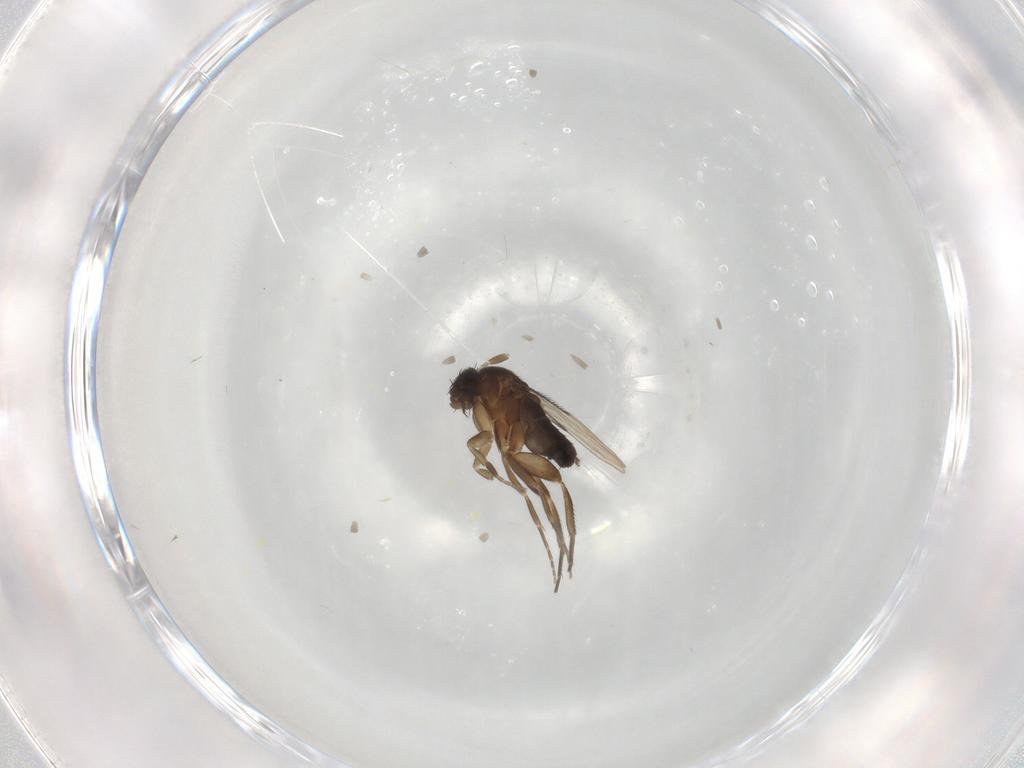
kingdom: Animalia
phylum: Arthropoda
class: Insecta
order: Diptera
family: Phoridae
